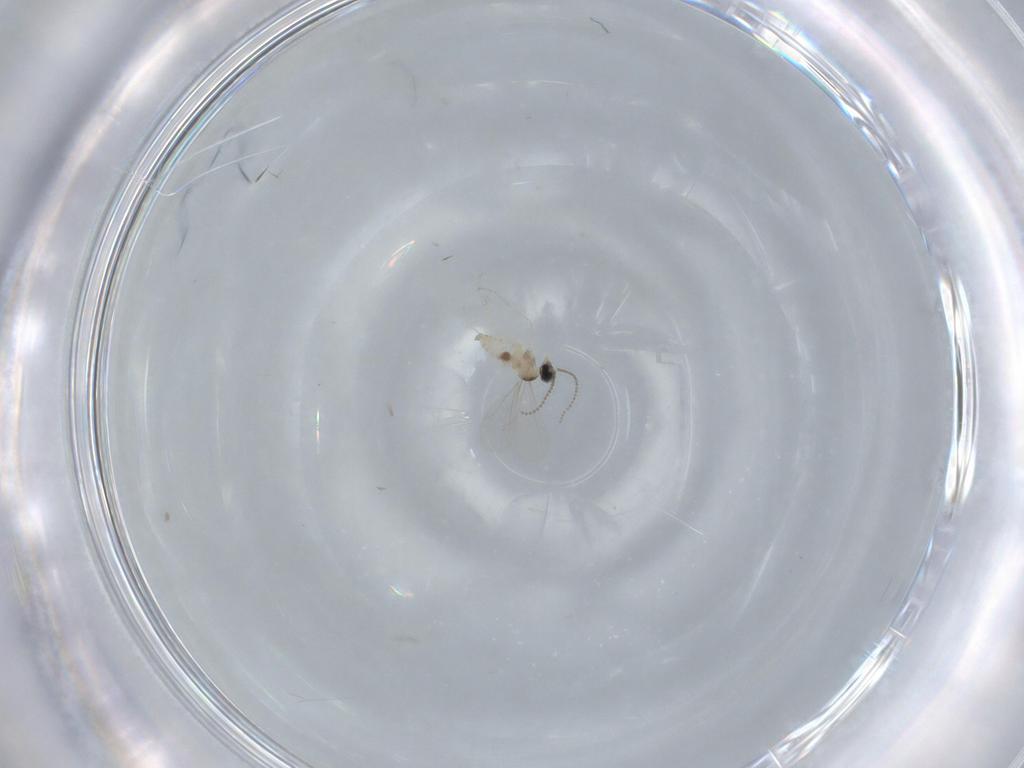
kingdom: Animalia
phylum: Arthropoda
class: Insecta
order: Diptera
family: Cecidomyiidae
